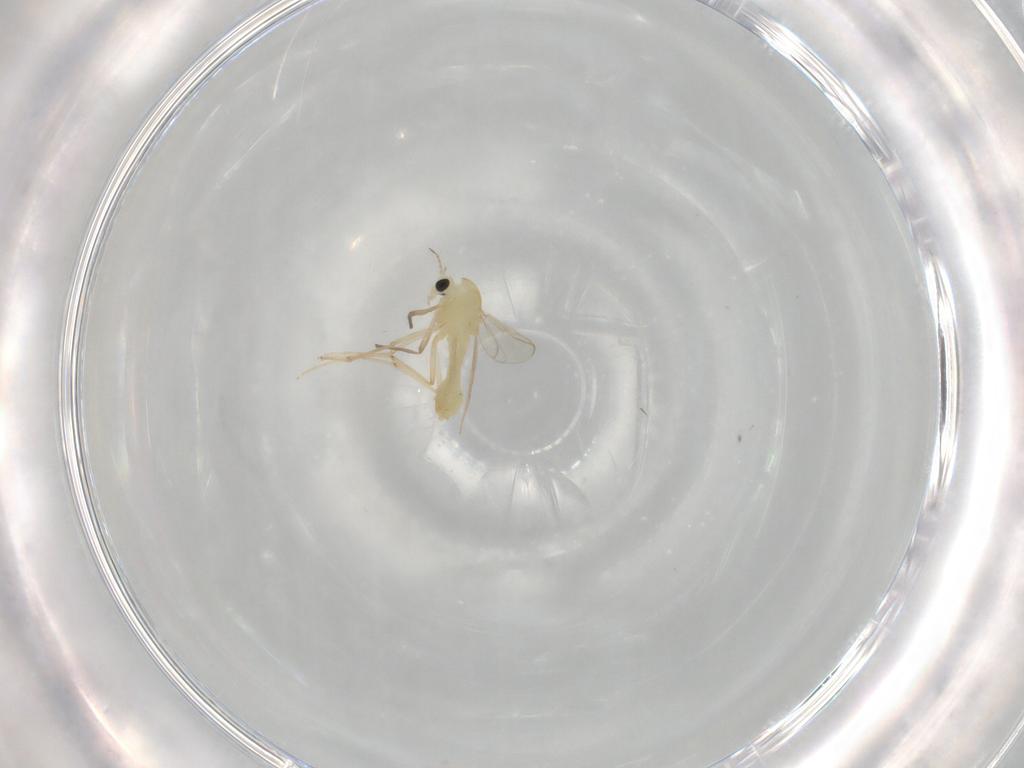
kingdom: Animalia
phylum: Arthropoda
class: Insecta
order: Diptera
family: Chironomidae
